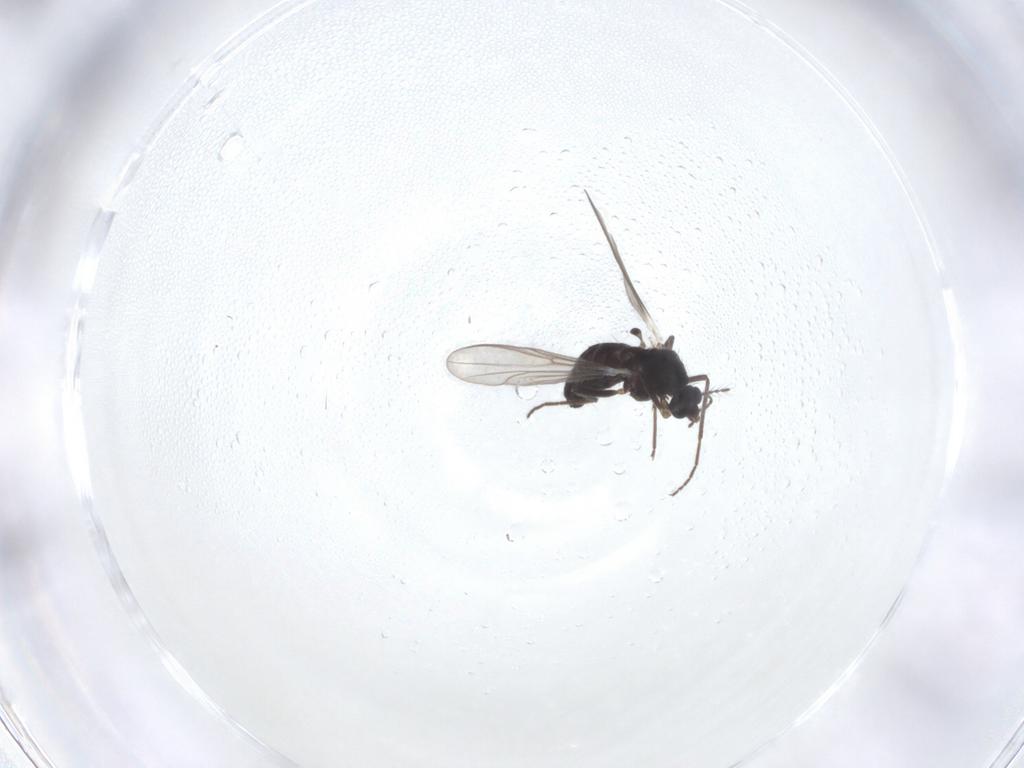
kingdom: Animalia
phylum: Arthropoda
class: Insecta
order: Diptera
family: Chironomidae
